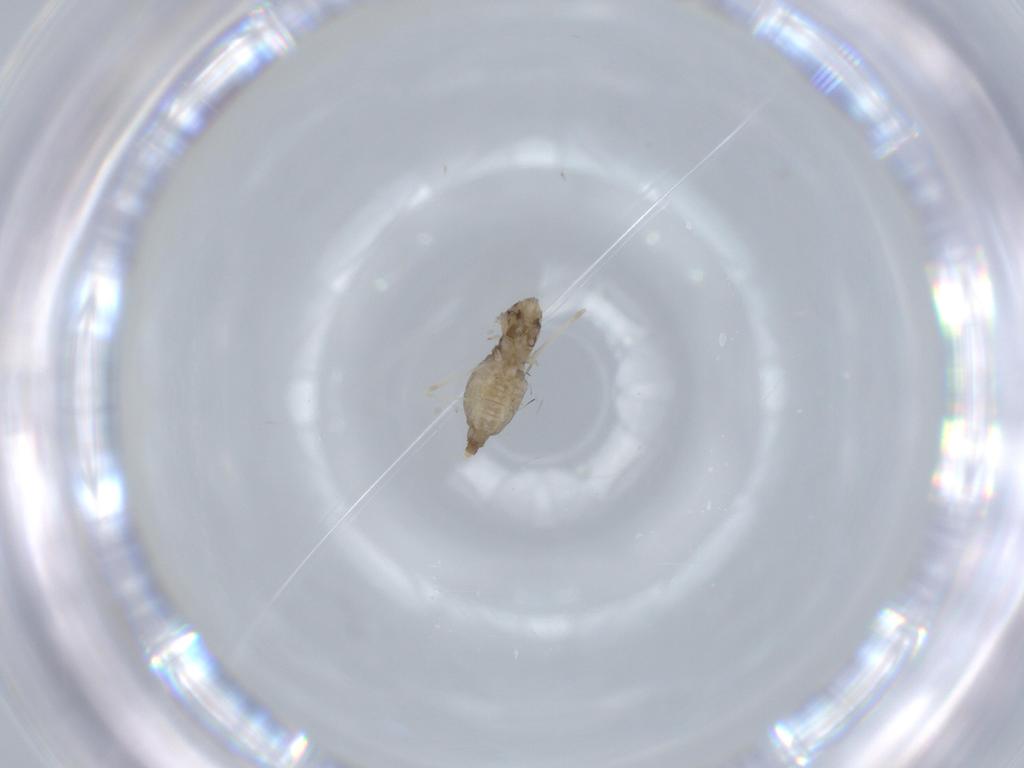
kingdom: Animalia
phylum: Arthropoda
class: Insecta
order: Diptera
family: Cecidomyiidae
